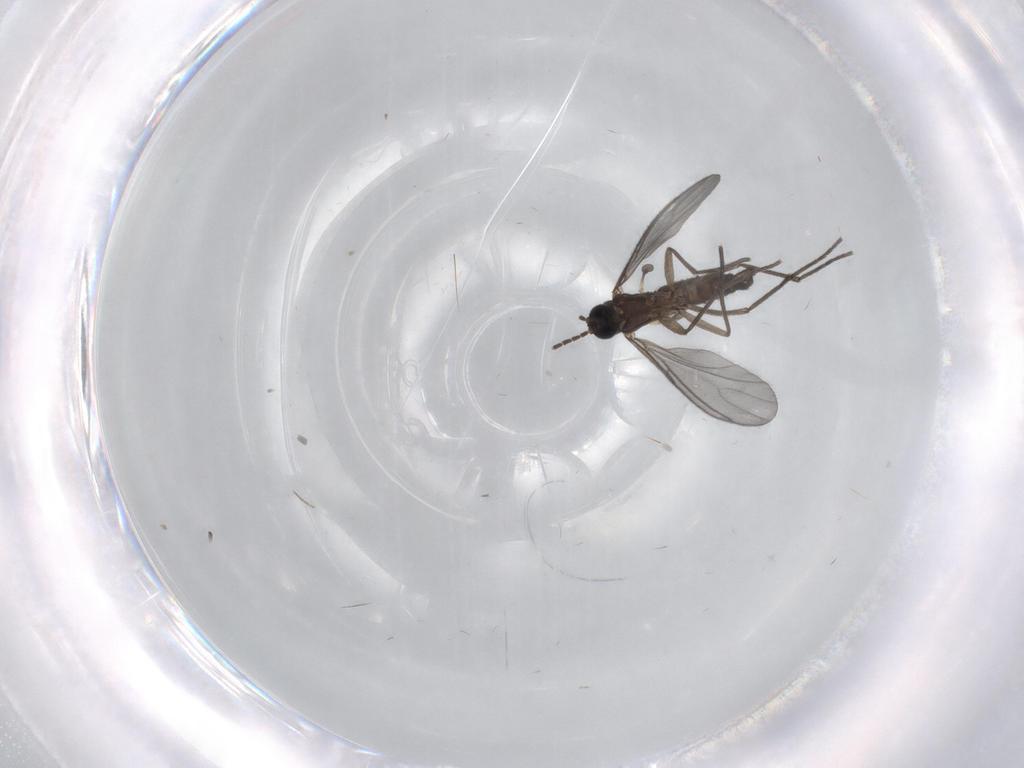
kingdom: Animalia
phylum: Arthropoda
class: Insecta
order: Diptera
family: Sciaridae
